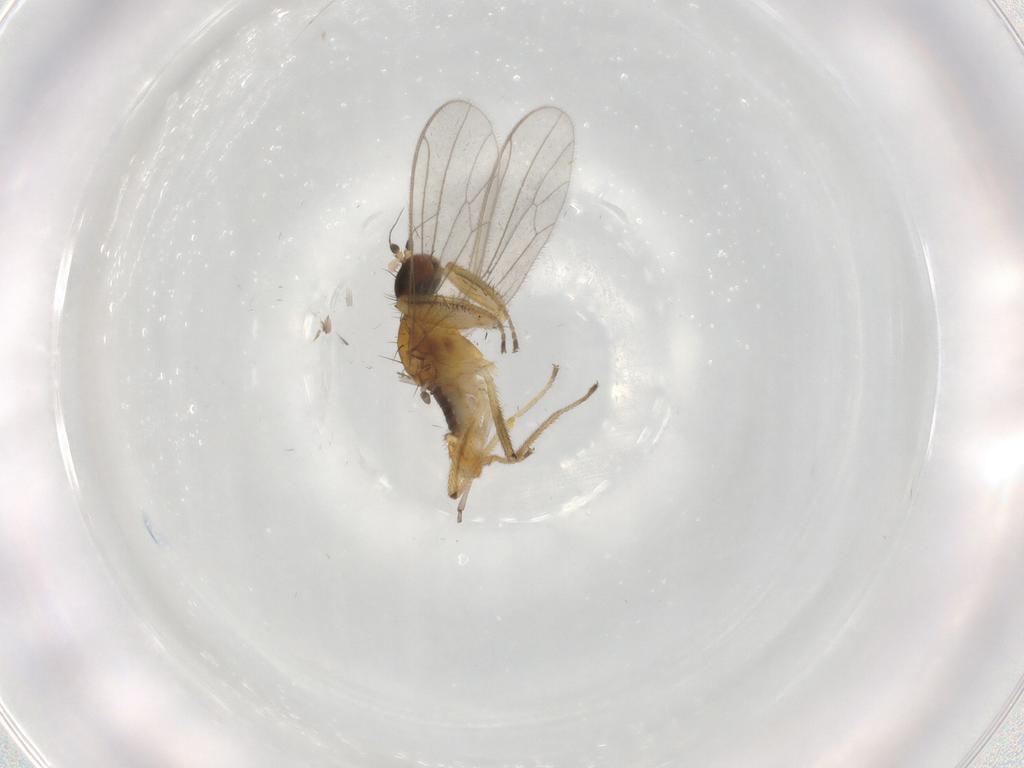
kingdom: Animalia
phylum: Arthropoda
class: Insecta
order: Diptera
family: Empididae
